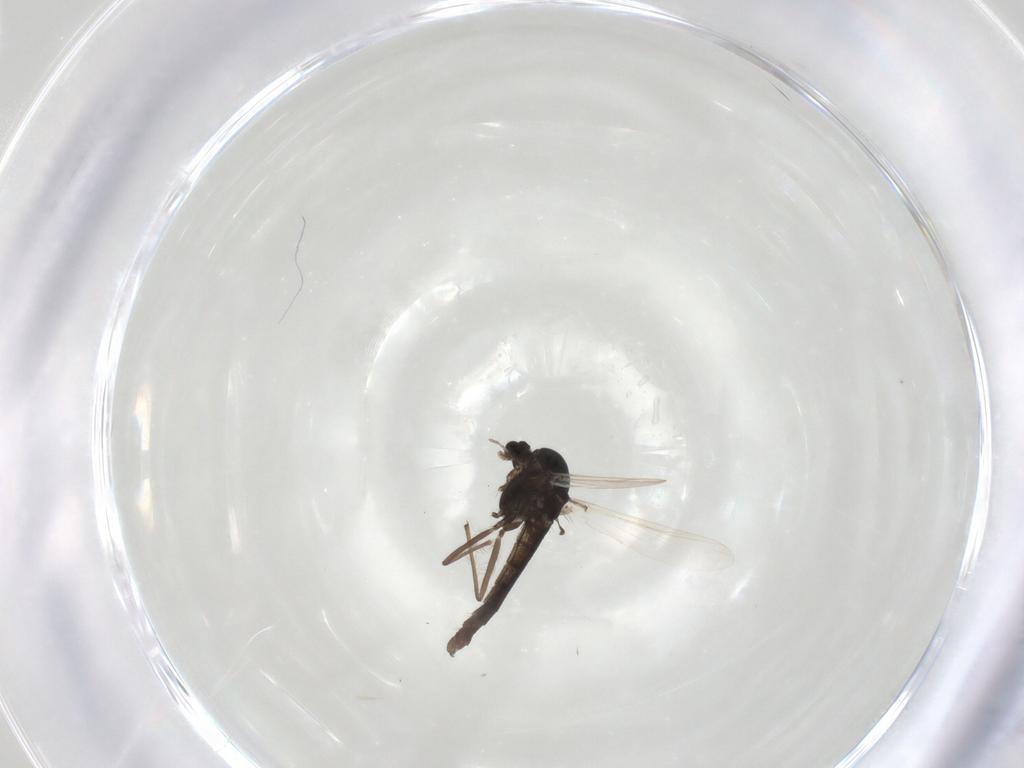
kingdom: Animalia
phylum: Arthropoda
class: Insecta
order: Diptera
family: Chironomidae
